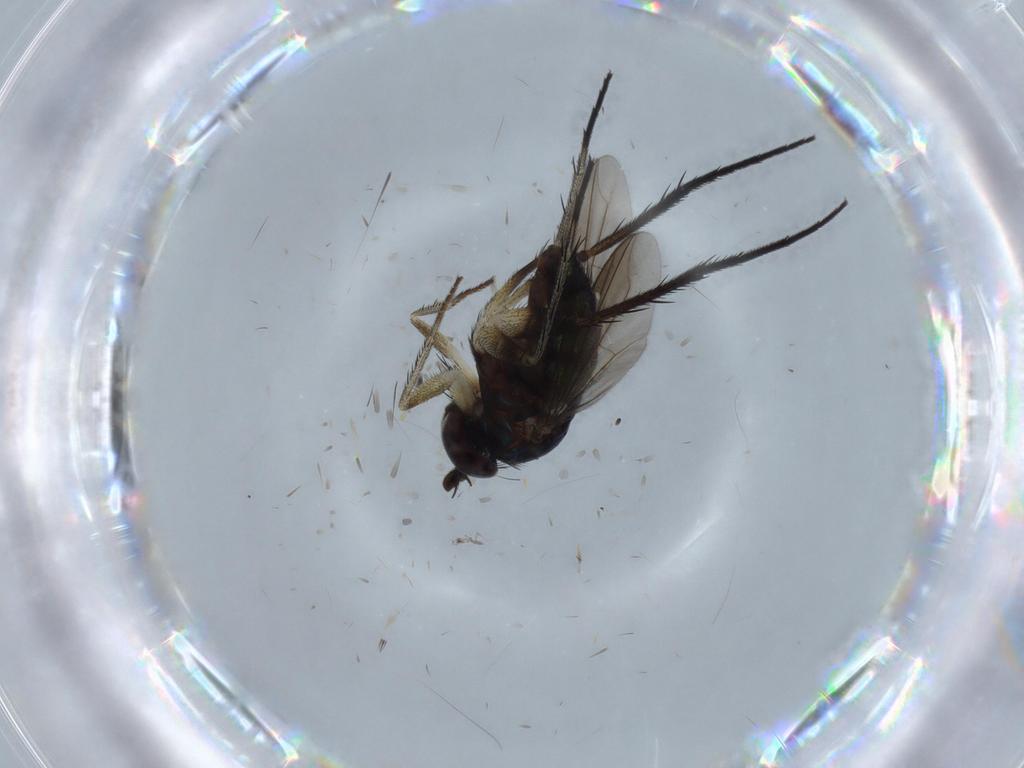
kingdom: Animalia
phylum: Arthropoda
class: Insecta
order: Diptera
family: Dolichopodidae
